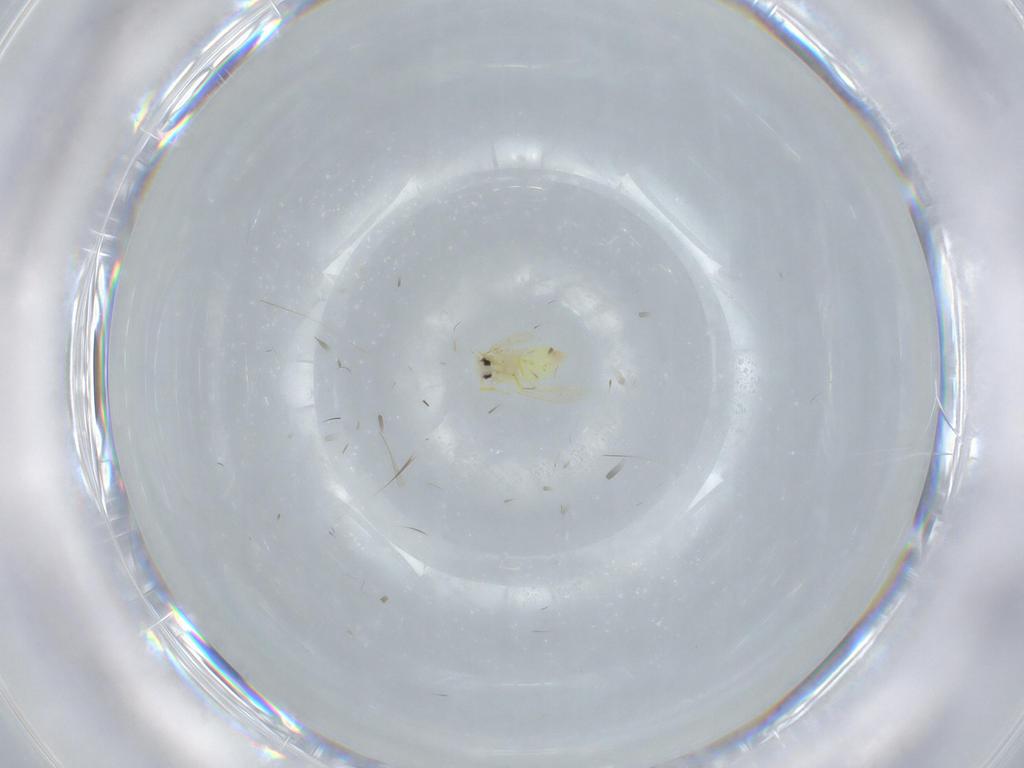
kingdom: Animalia
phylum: Arthropoda
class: Insecta
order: Hemiptera
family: Aleyrodidae
